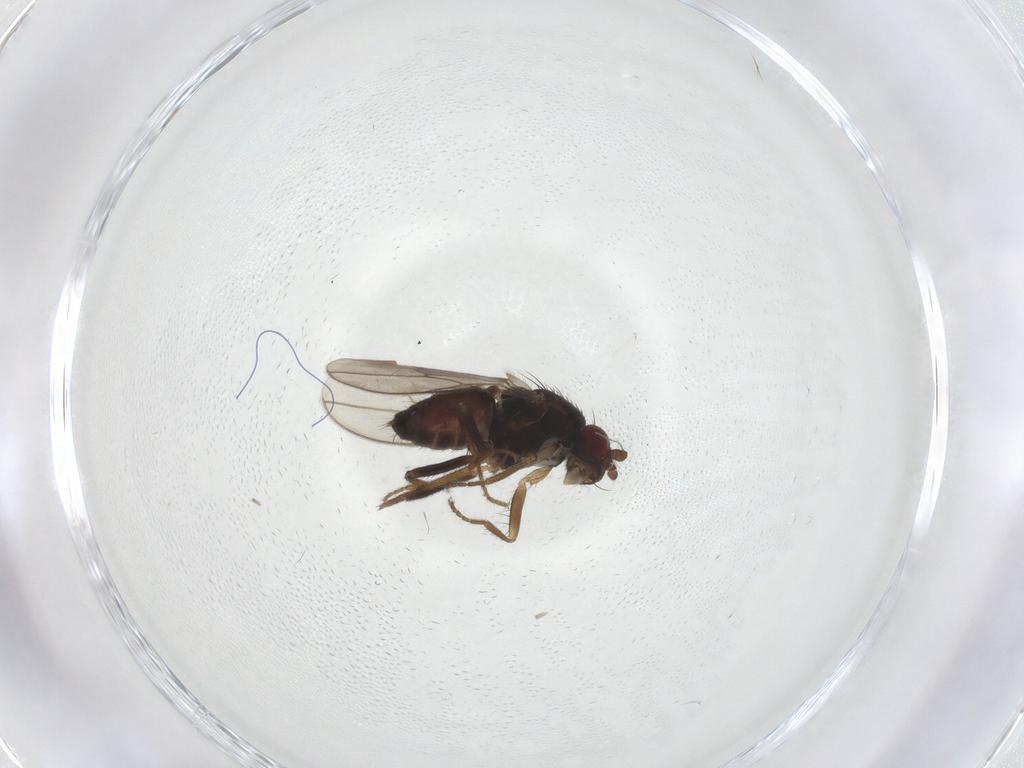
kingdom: Animalia
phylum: Arthropoda
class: Insecta
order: Diptera
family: Sphaeroceridae
